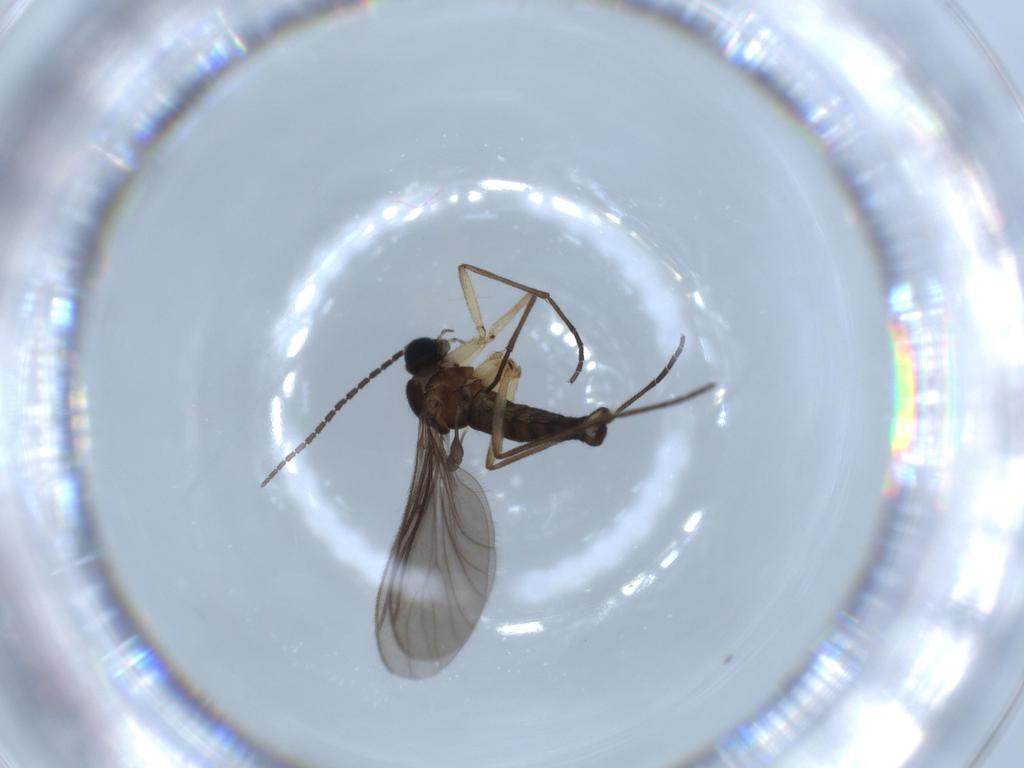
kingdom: Animalia
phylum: Arthropoda
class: Insecta
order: Diptera
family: Sciaridae
